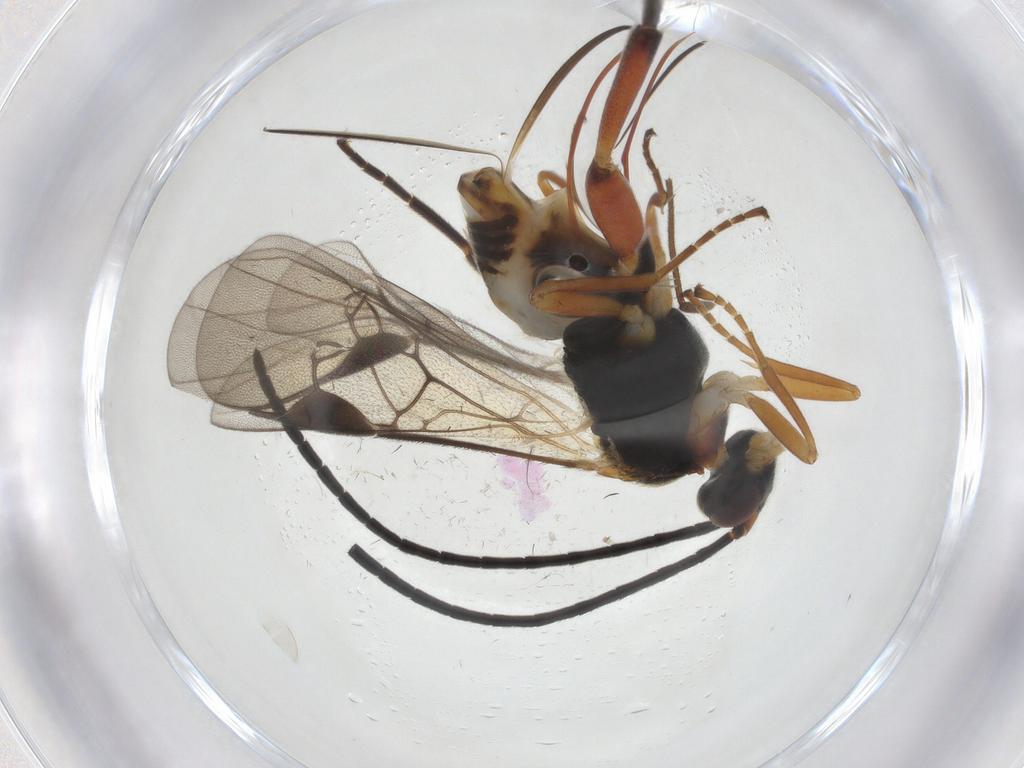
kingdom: Animalia
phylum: Arthropoda
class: Insecta
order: Lepidoptera
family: Tortricidae
